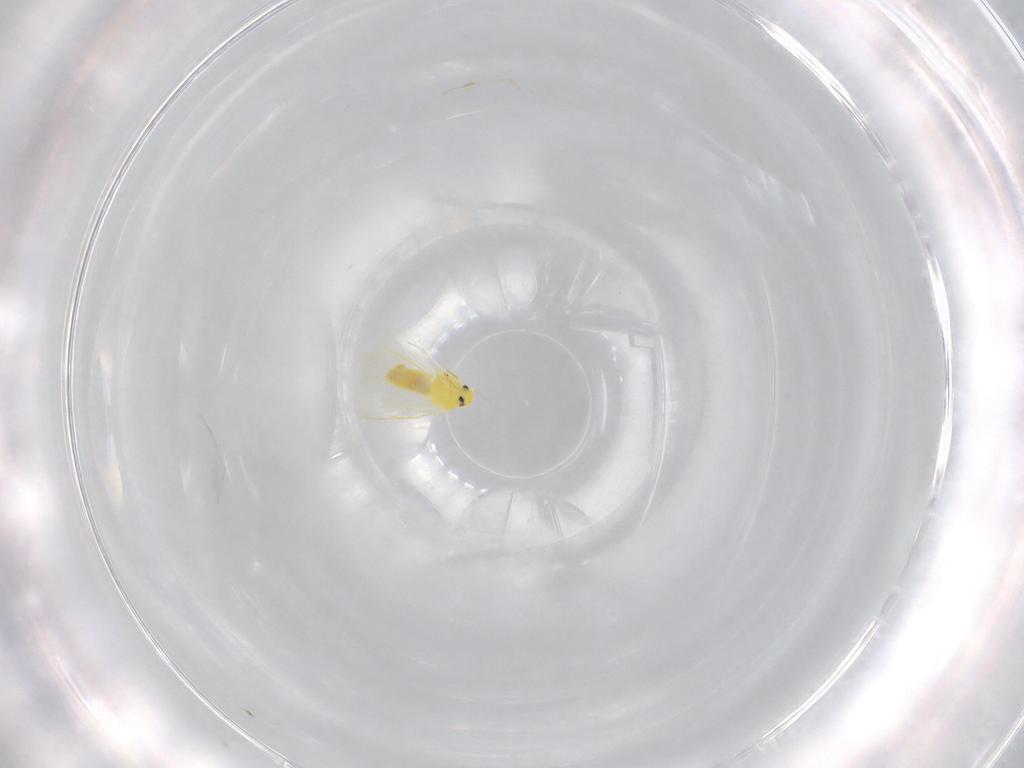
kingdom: Animalia
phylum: Arthropoda
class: Insecta
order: Hemiptera
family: Aleyrodidae
